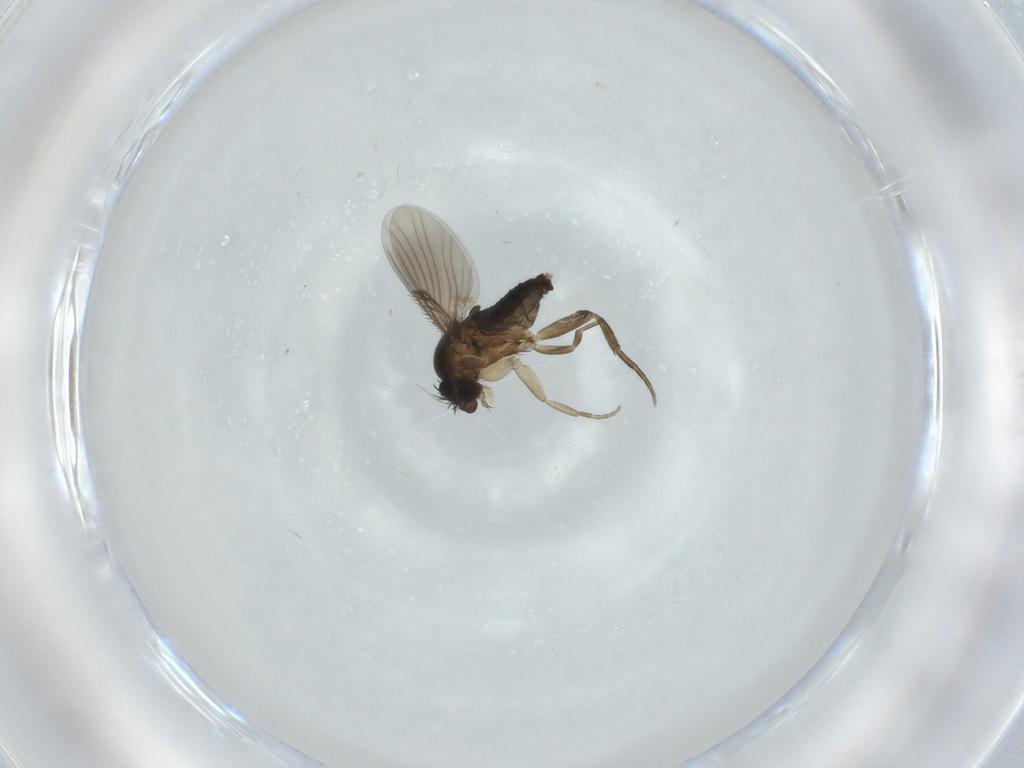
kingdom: Animalia
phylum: Arthropoda
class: Insecta
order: Diptera
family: Phoridae
